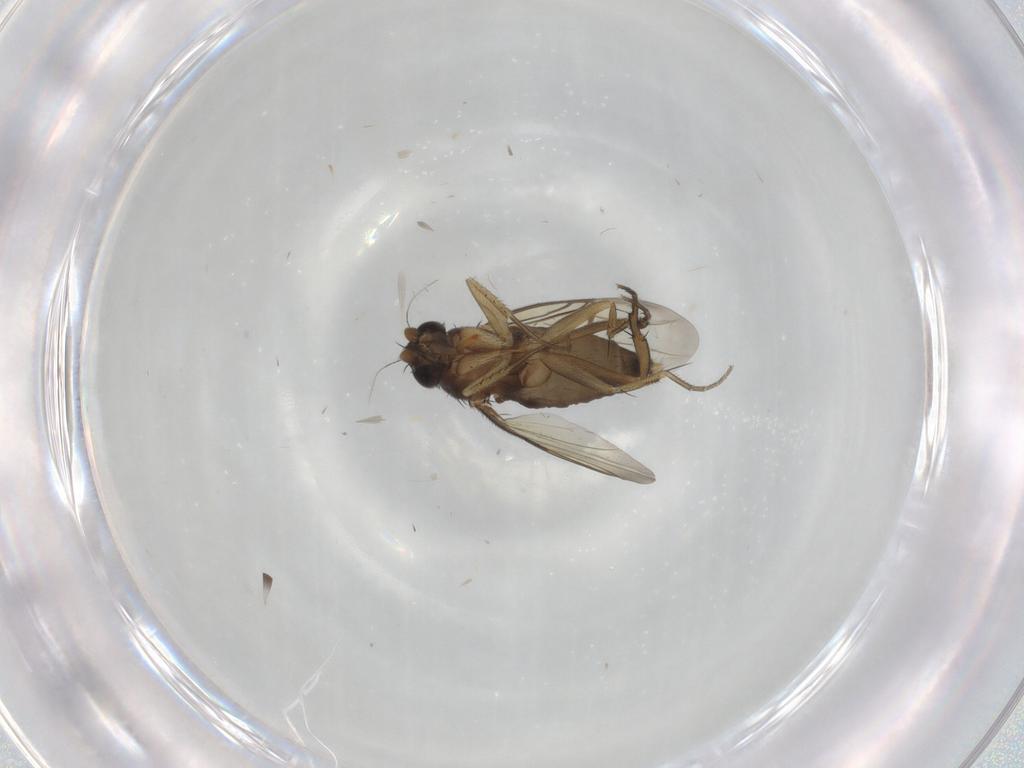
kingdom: Animalia
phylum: Arthropoda
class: Insecta
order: Diptera
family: Phoridae
